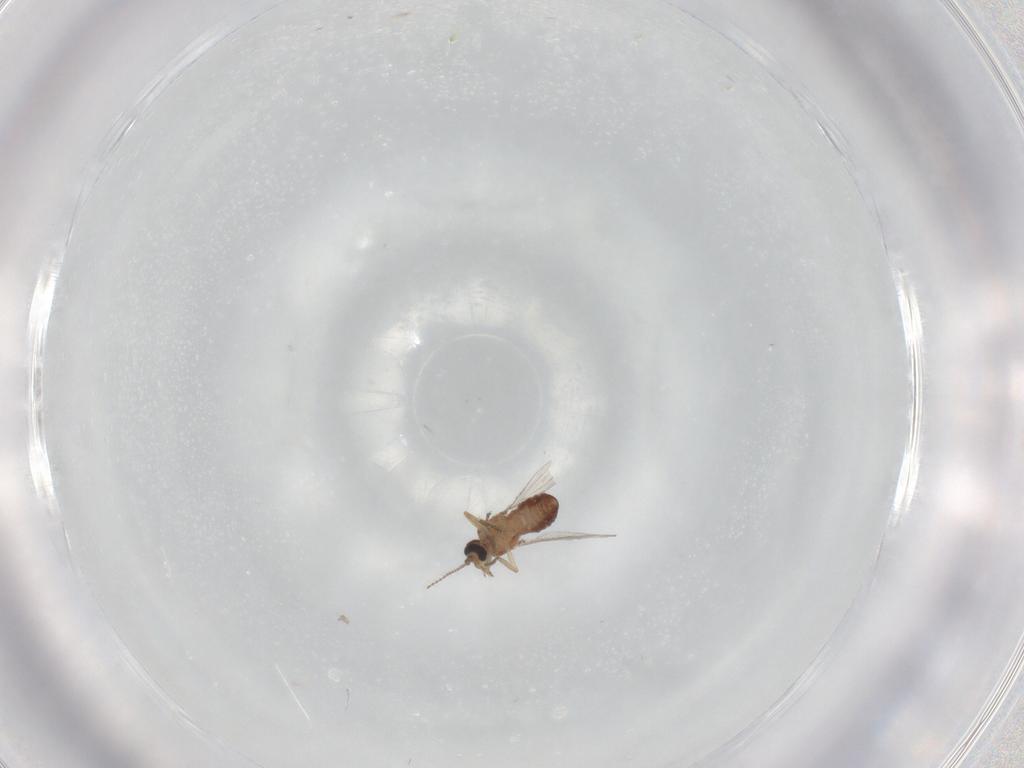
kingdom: Animalia
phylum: Arthropoda
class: Insecta
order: Diptera
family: Ceratopogonidae
